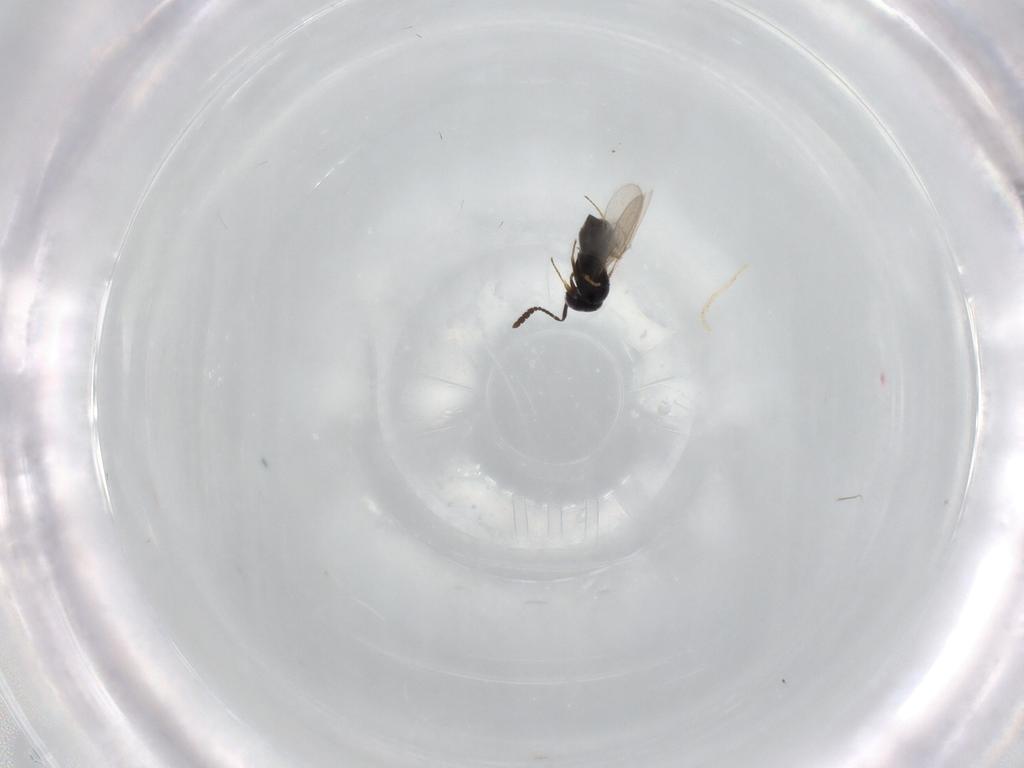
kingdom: Animalia
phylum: Arthropoda
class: Insecta
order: Hymenoptera
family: Scelionidae
